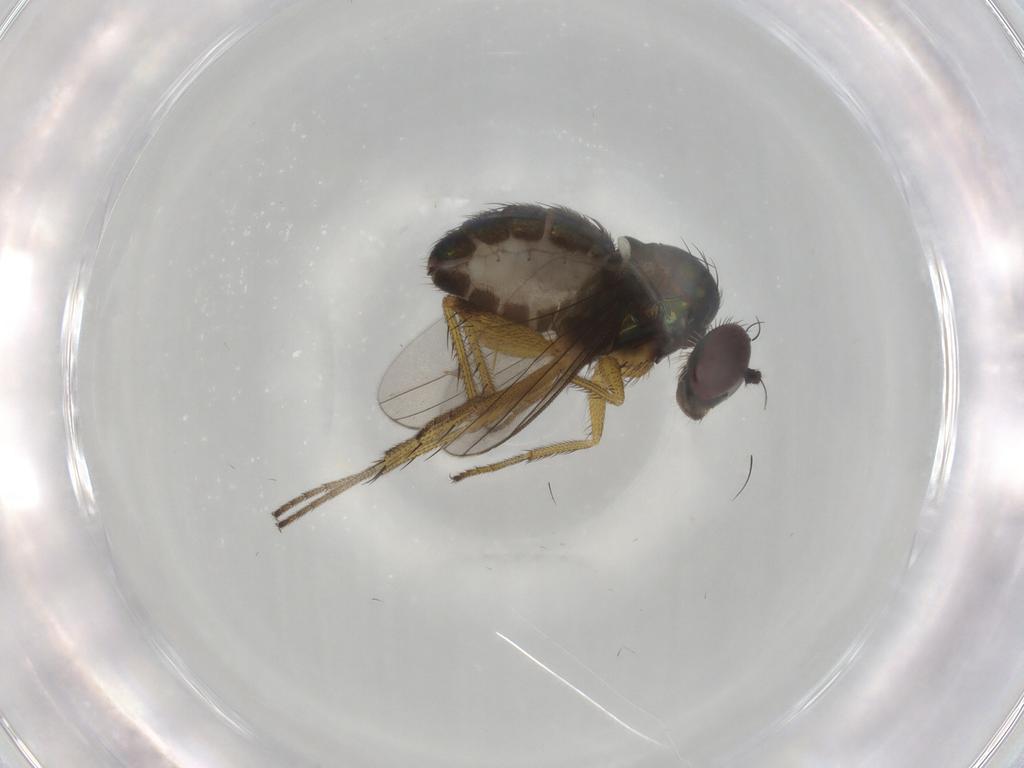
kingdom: Animalia
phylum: Arthropoda
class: Insecta
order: Diptera
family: Dolichopodidae
